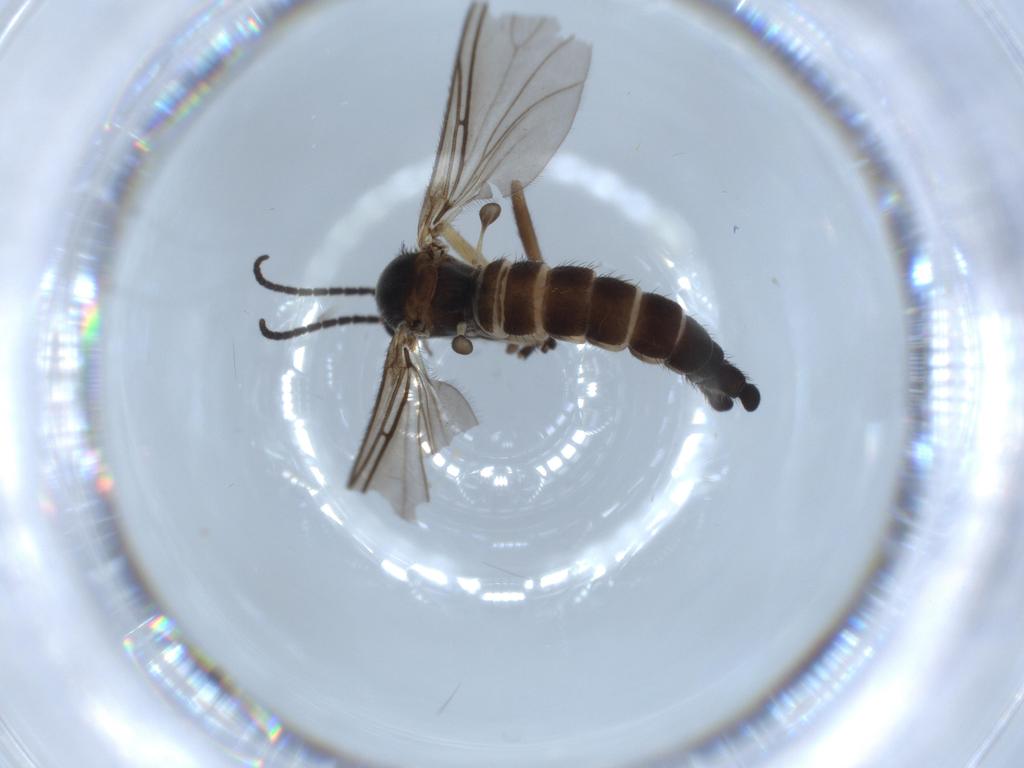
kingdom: Animalia
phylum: Arthropoda
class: Insecta
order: Diptera
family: Sciaridae
